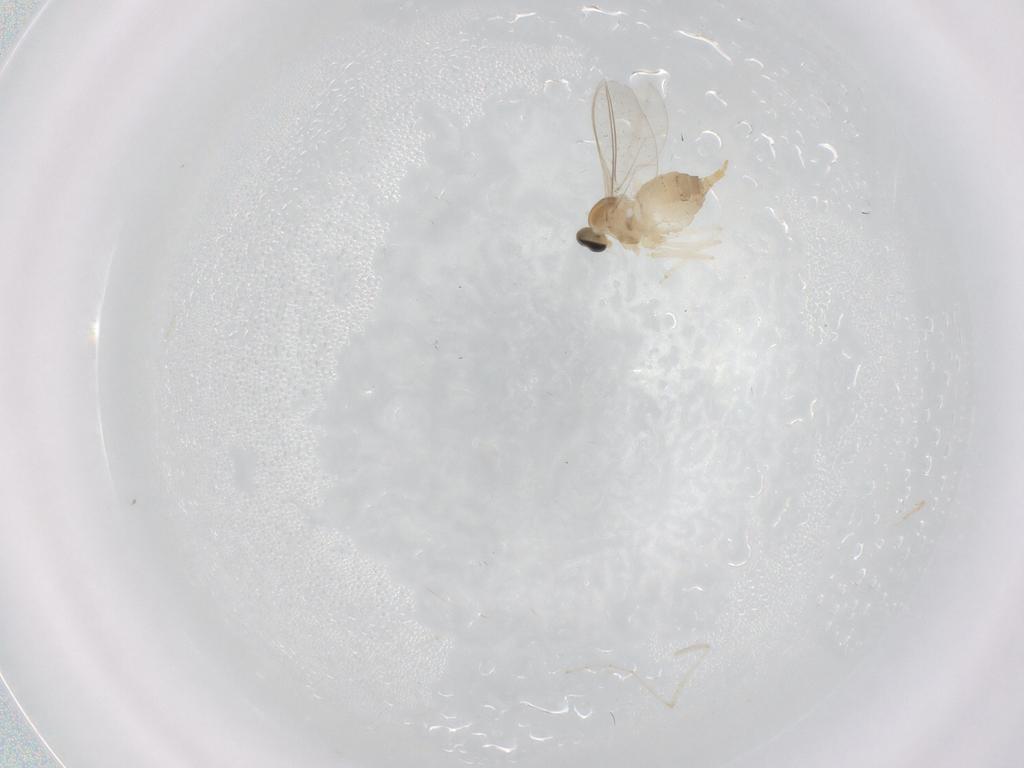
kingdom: Animalia
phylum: Arthropoda
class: Insecta
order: Diptera
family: Cecidomyiidae
